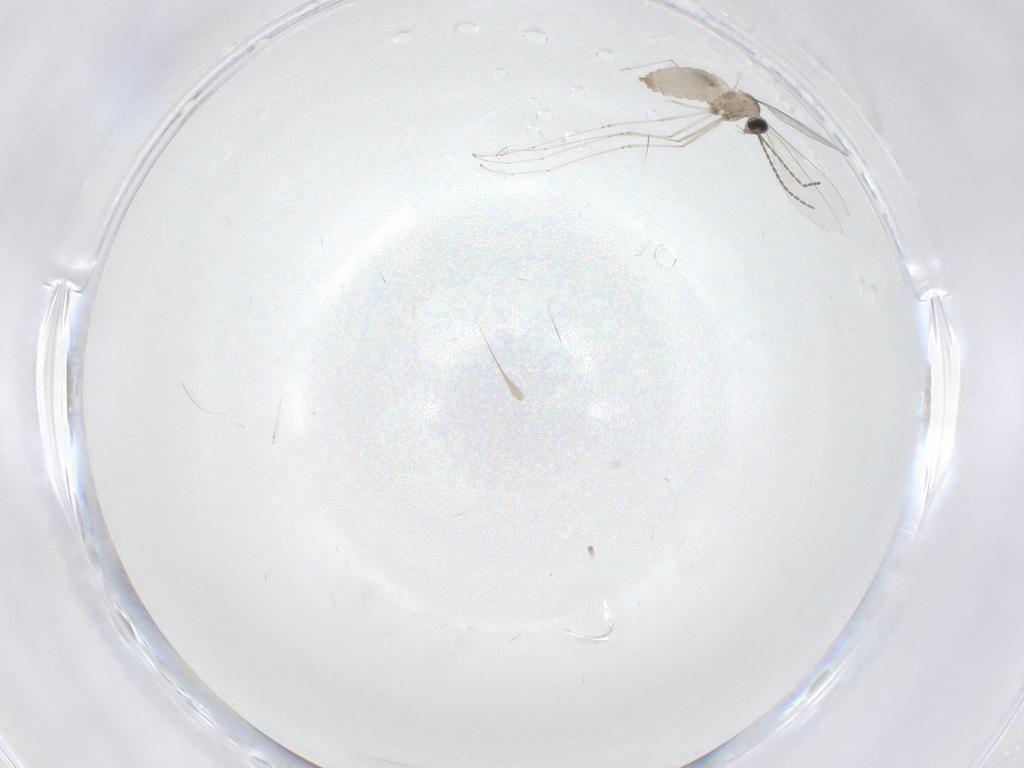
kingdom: Animalia
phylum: Arthropoda
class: Insecta
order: Diptera
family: Cecidomyiidae
